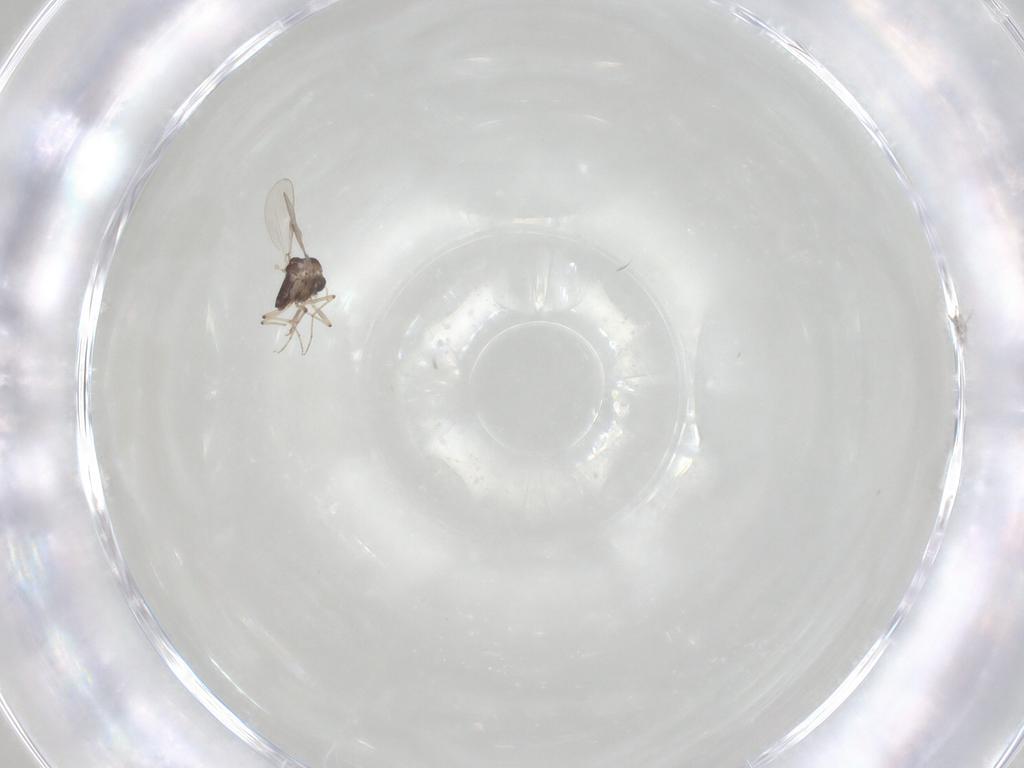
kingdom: Animalia
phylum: Arthropoda
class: Insecta
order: Diptera
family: Chironomidae
